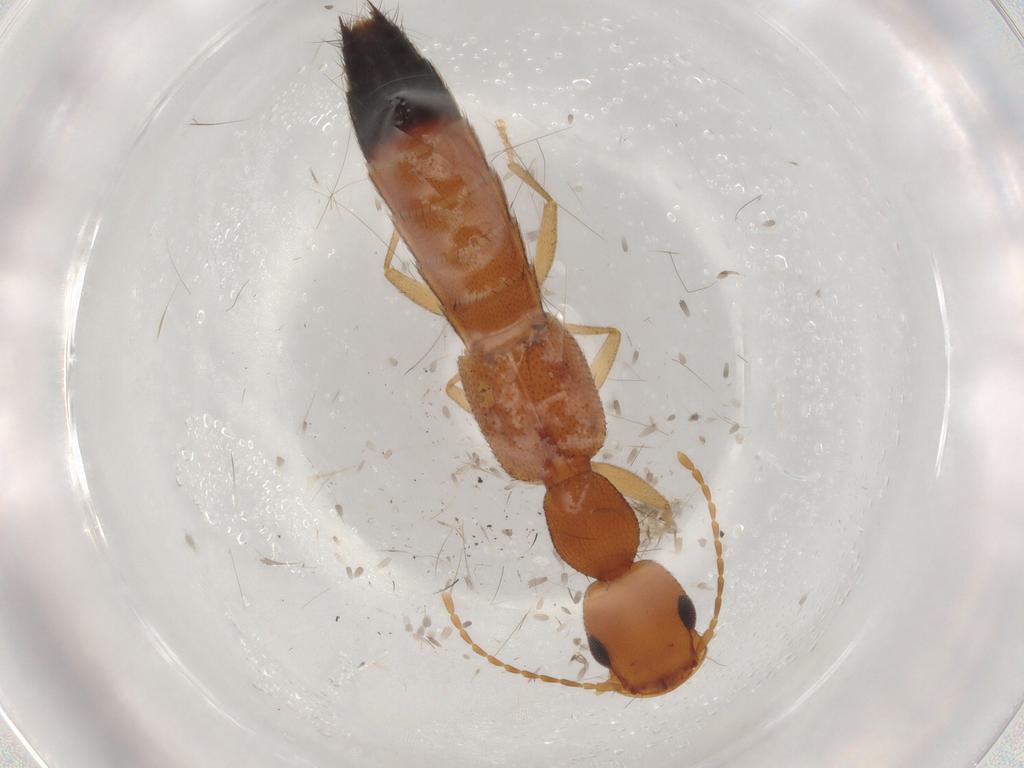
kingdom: Animalia
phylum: Arthropoda
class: Insecta
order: Coleoptera
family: Staphylinidae
